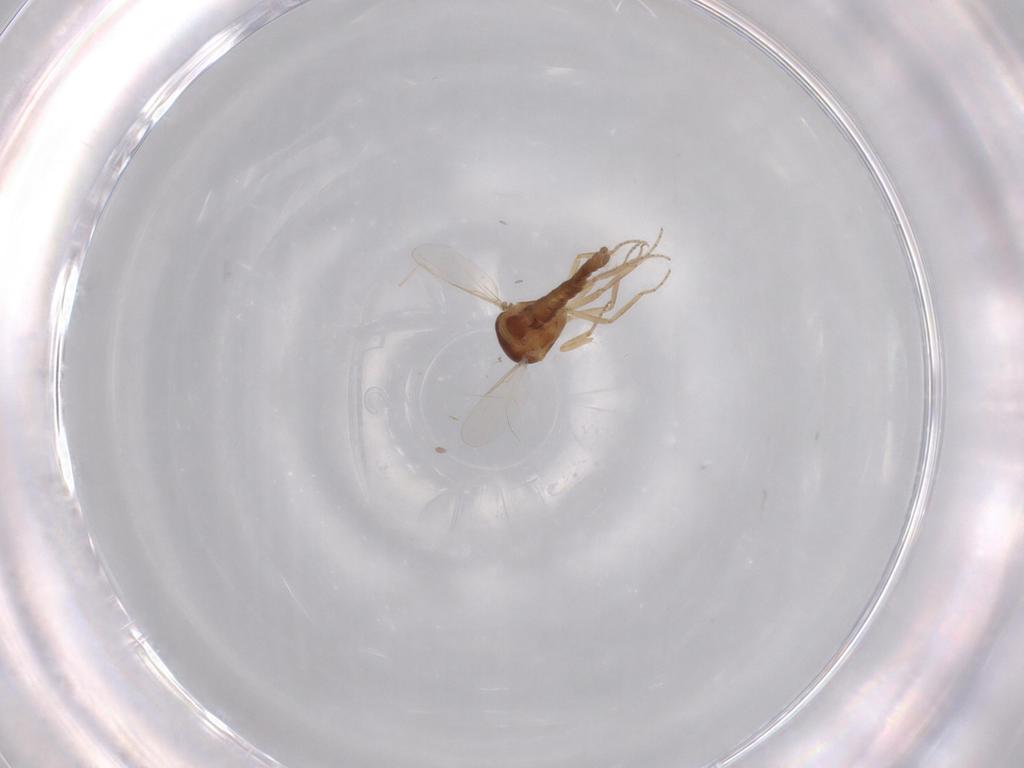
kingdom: Animalia
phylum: Arthropoda
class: Insecta
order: Diptera
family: Ceratopogonidae
